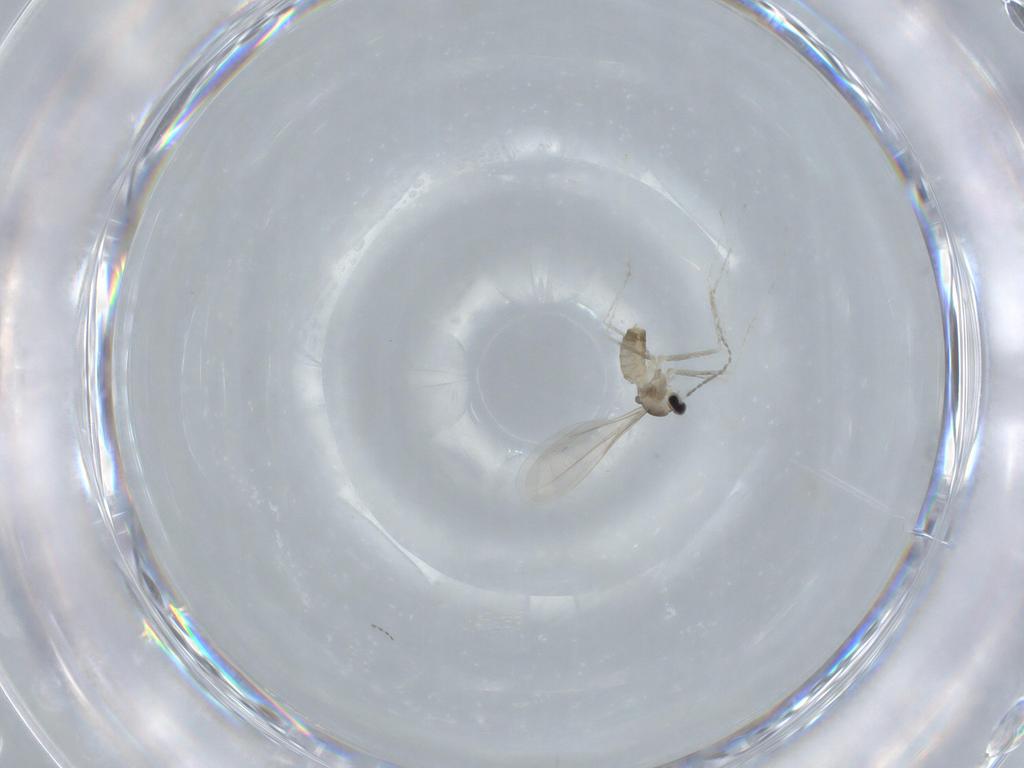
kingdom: Animalia
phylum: Arthropoda
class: Insecta
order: Diptera
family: Cecidomyiidae
